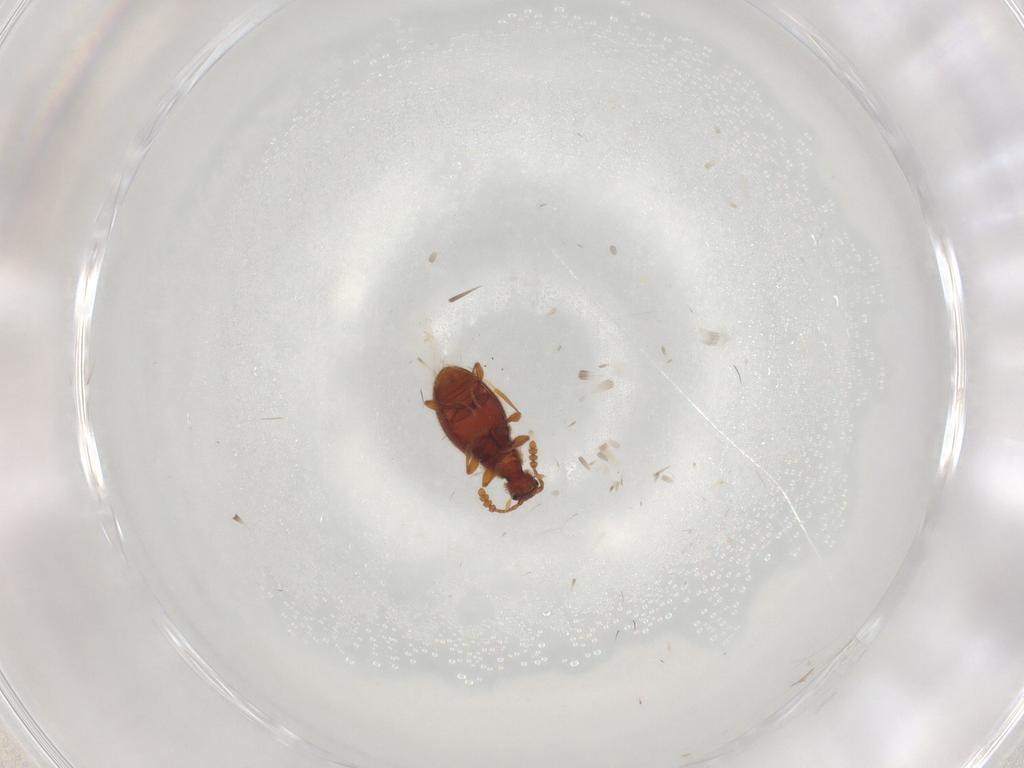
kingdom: Animalia
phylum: Arthropoda
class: Insecta
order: Coleoptera
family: Staphylinidae
